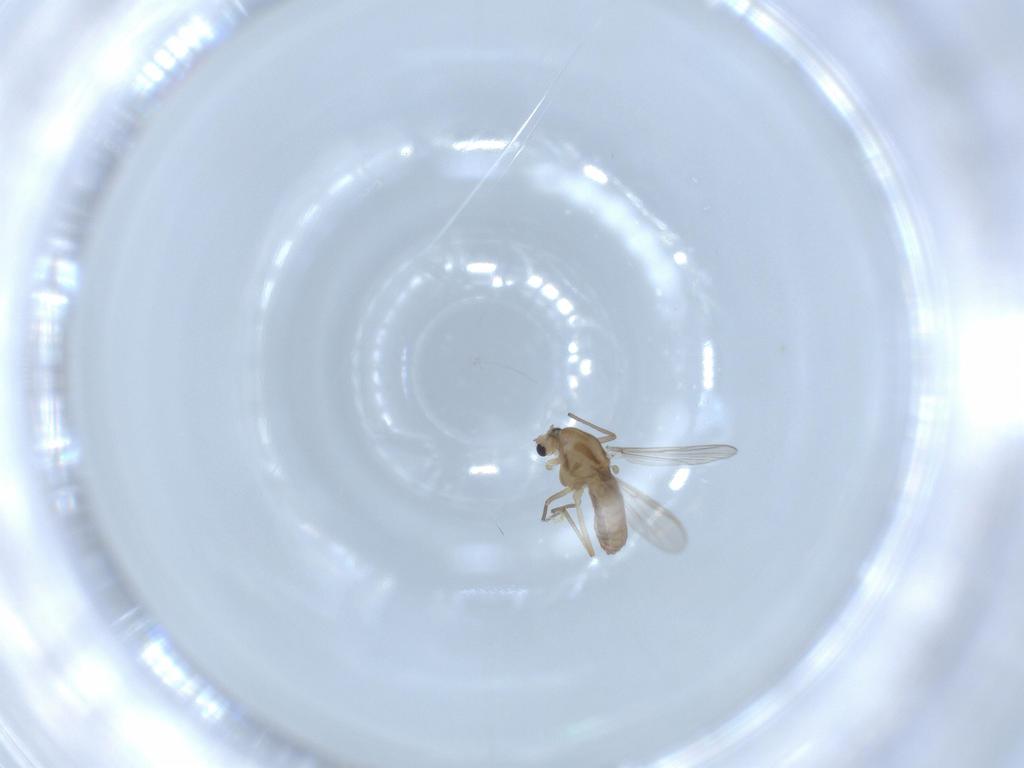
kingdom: Animalia
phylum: Arthropoda
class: Insecta
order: Diptera
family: Chironomidae
